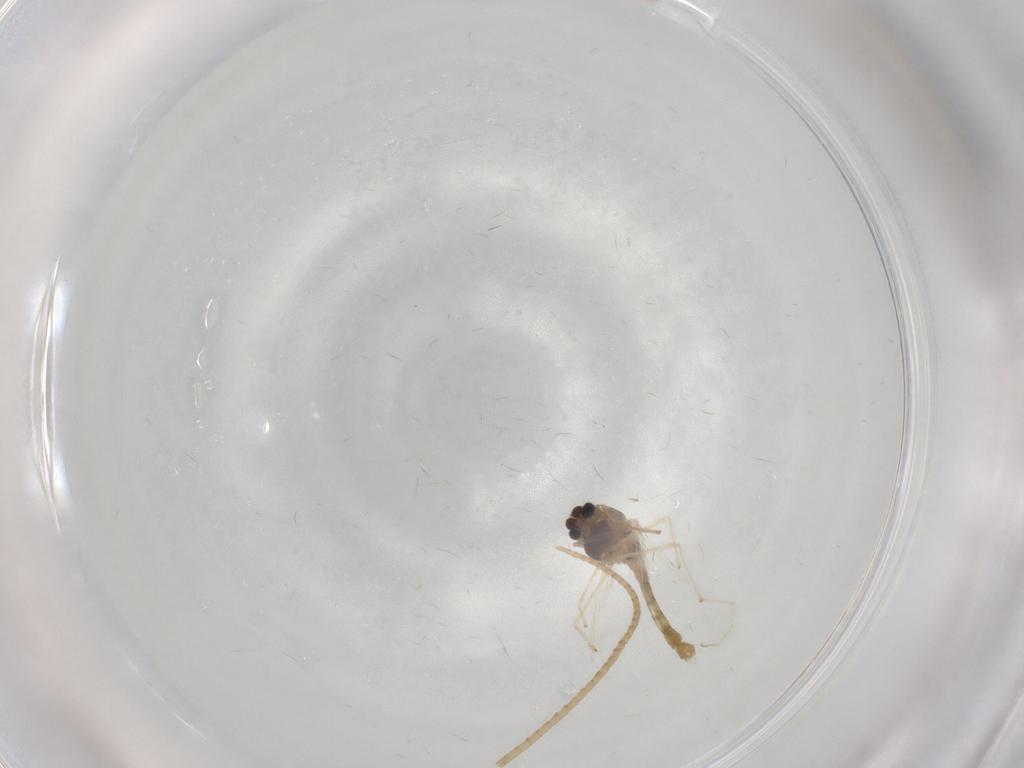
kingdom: Animalia
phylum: Arthropoda
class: Insecta
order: Diptera
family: Chironomidae
